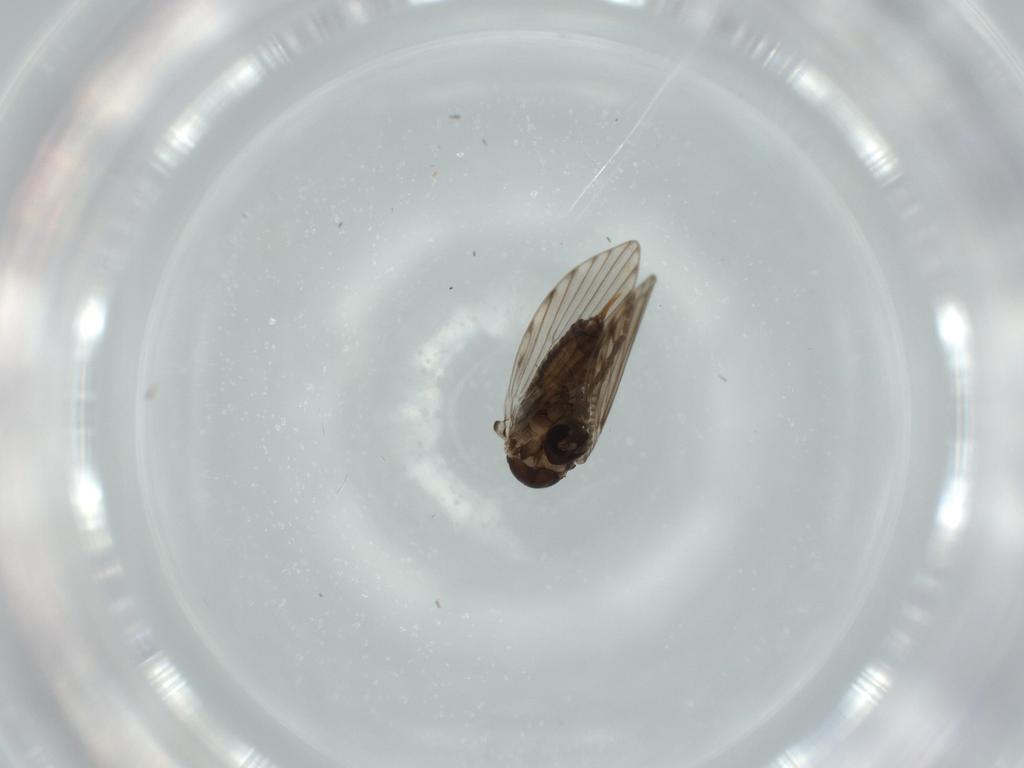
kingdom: Animalia
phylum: Arthropoda
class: Insecta
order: Diptera
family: Psychodidae
